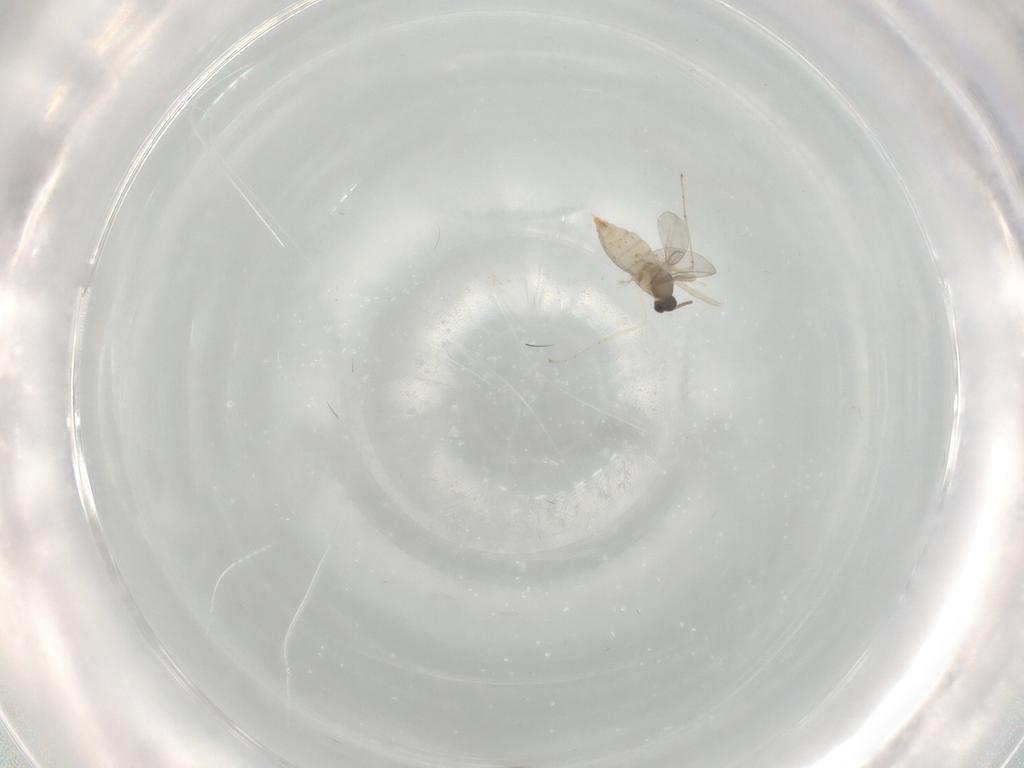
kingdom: Animalia
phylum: Arthropoda
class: Insecta
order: Diptera
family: Cecidomyiidae
